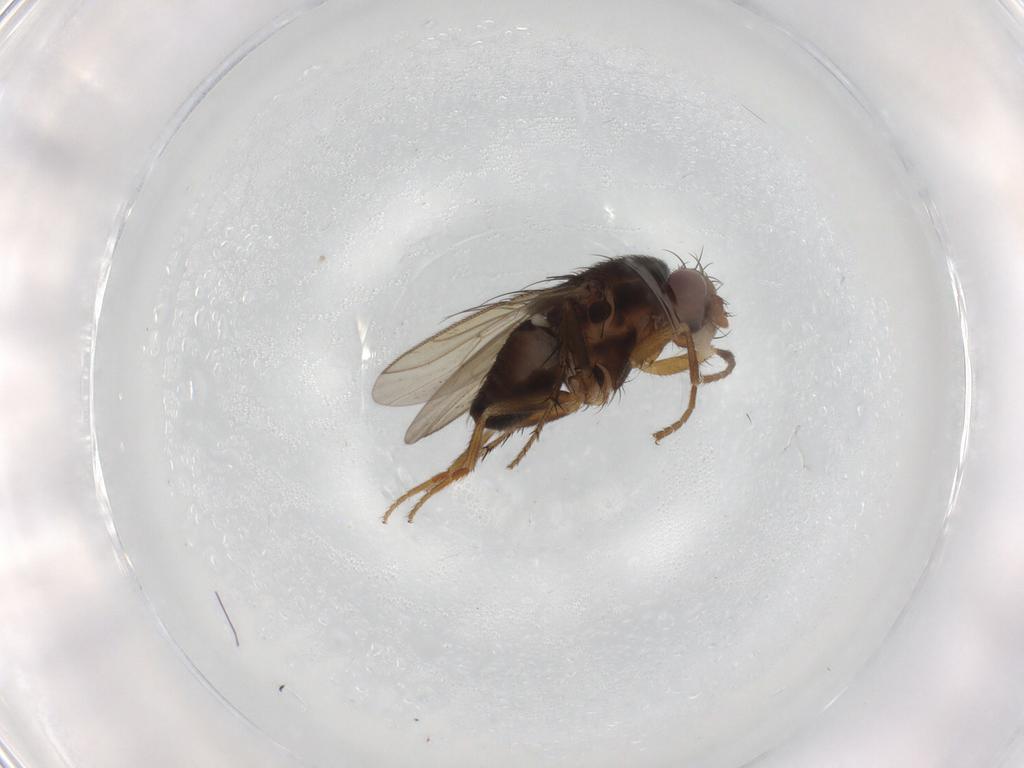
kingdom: Animalia
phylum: Arthropoda
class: Insecta
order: Diptera
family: Sphaeroceridae
